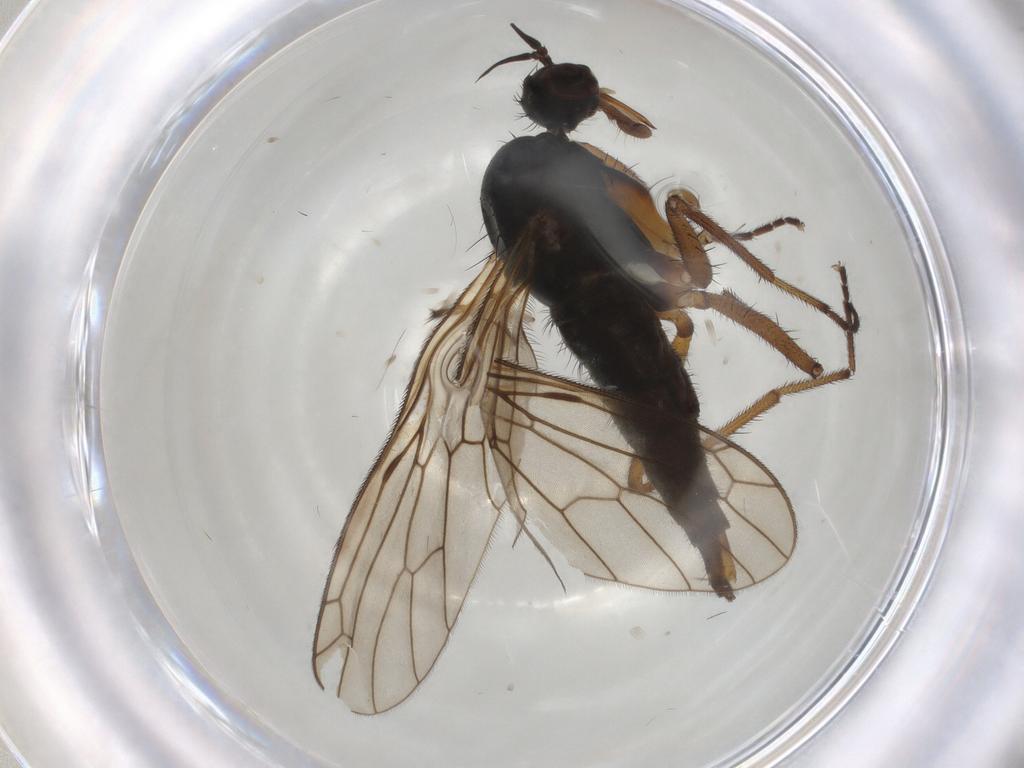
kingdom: Animalia
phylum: Arthropoda
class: Insecta
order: Diptera
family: Empididae
